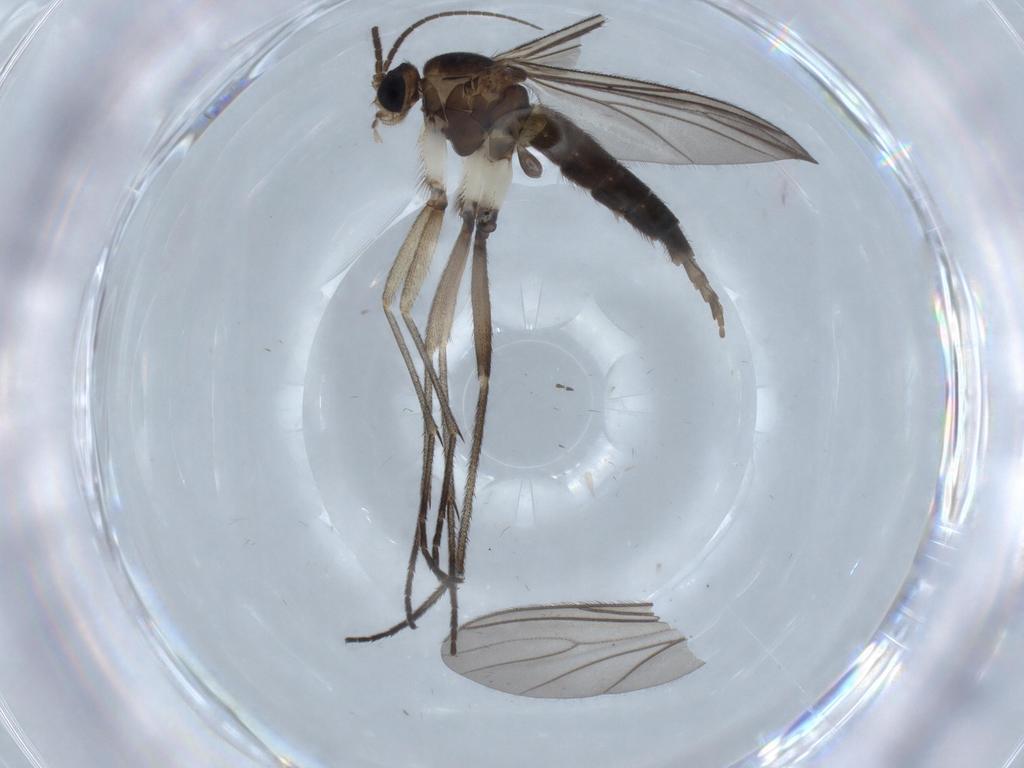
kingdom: Animalia
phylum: Arthropoda
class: Insecta
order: Diptera
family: Sciaridae
